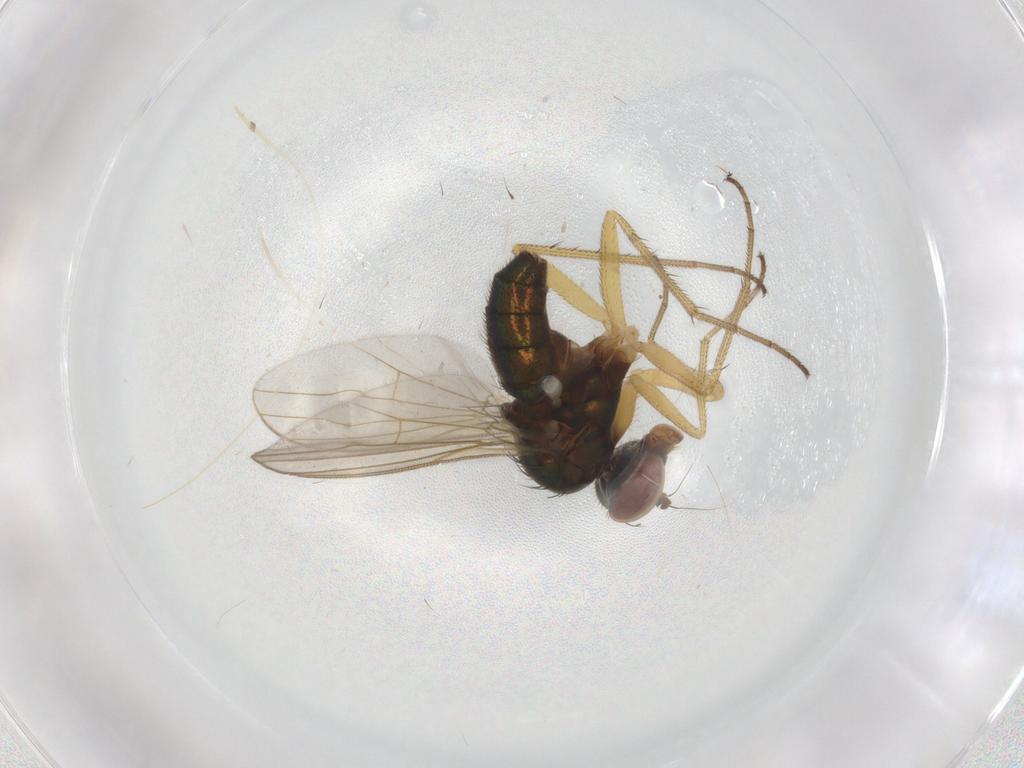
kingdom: Animalia
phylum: Arthropoda
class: Insecta
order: Diptera
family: Dolichopodidae
